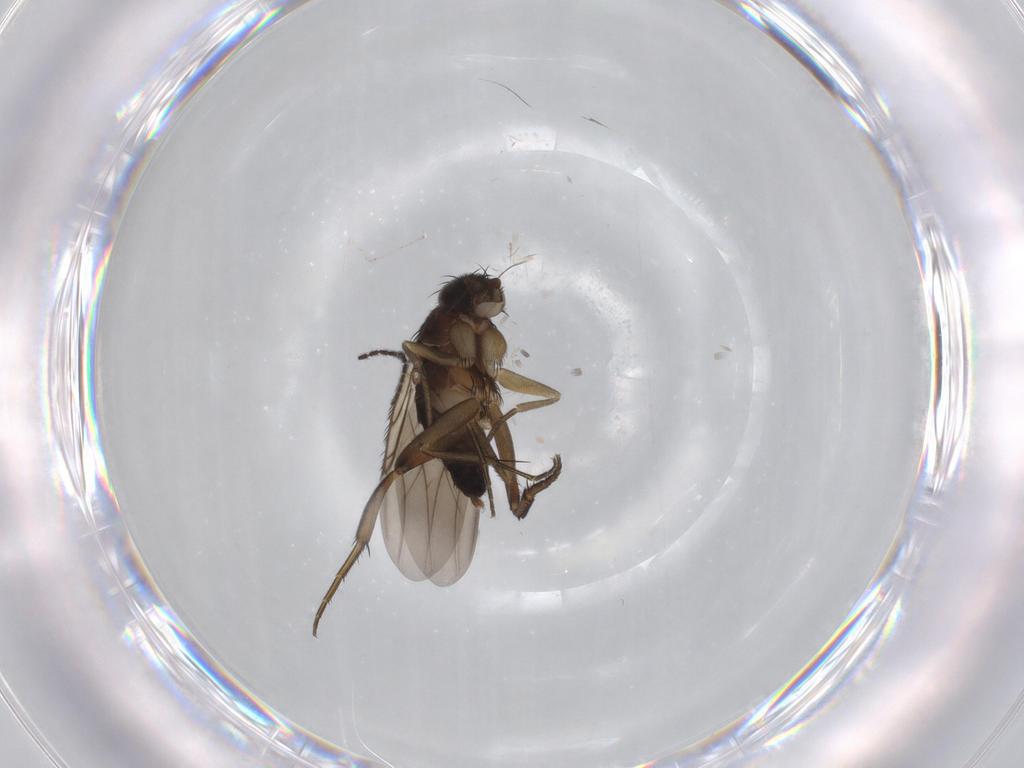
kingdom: Animalia
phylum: Arthropoda
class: Insecta
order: Diptera
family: Phoridae
